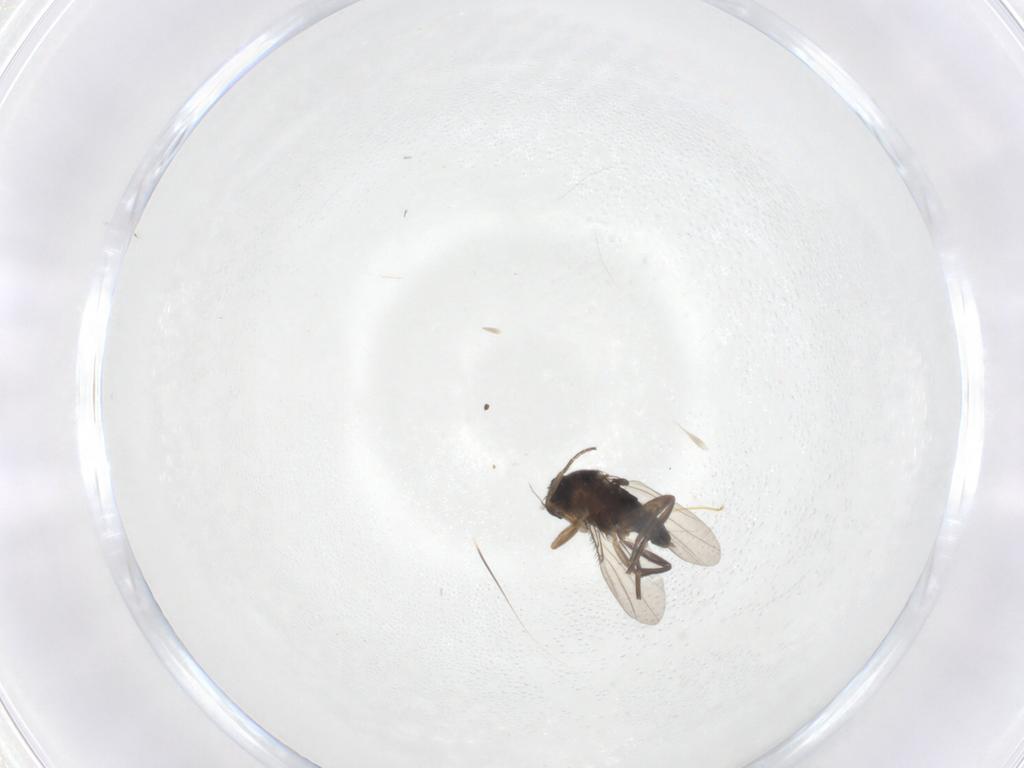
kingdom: Animalia
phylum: Arthropoda
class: Insecta
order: Diptera
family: Phoridae
